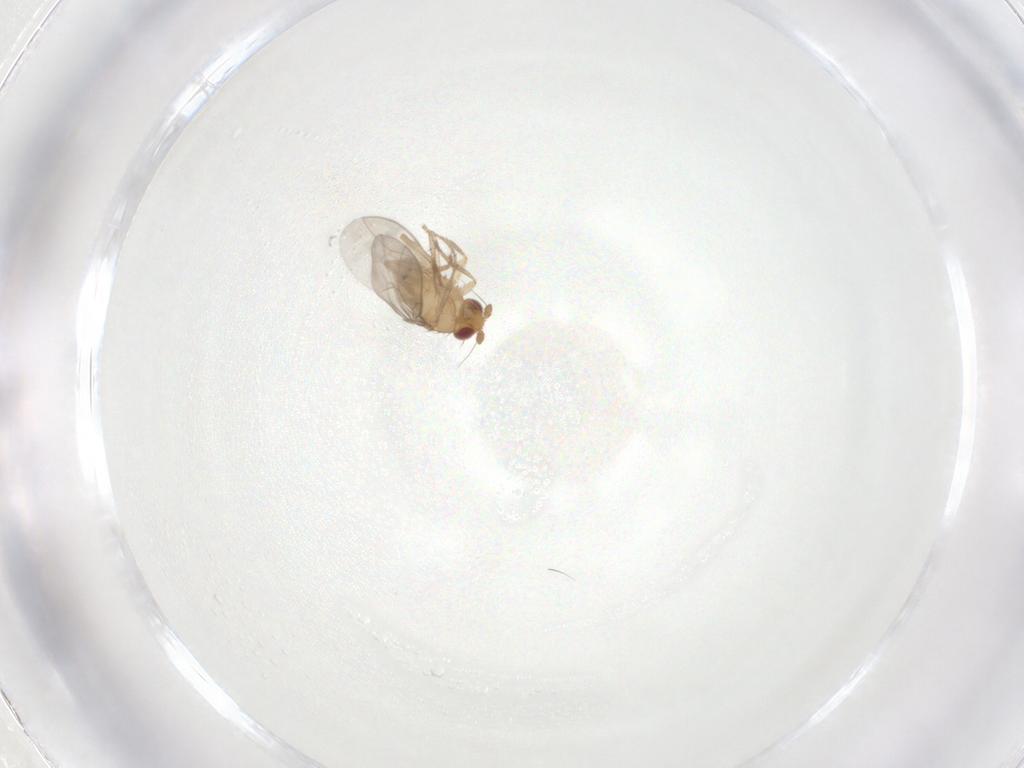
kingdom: Animalia
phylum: Arthropoda
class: Insecta
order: Diptera
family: Sphaeroceridae
